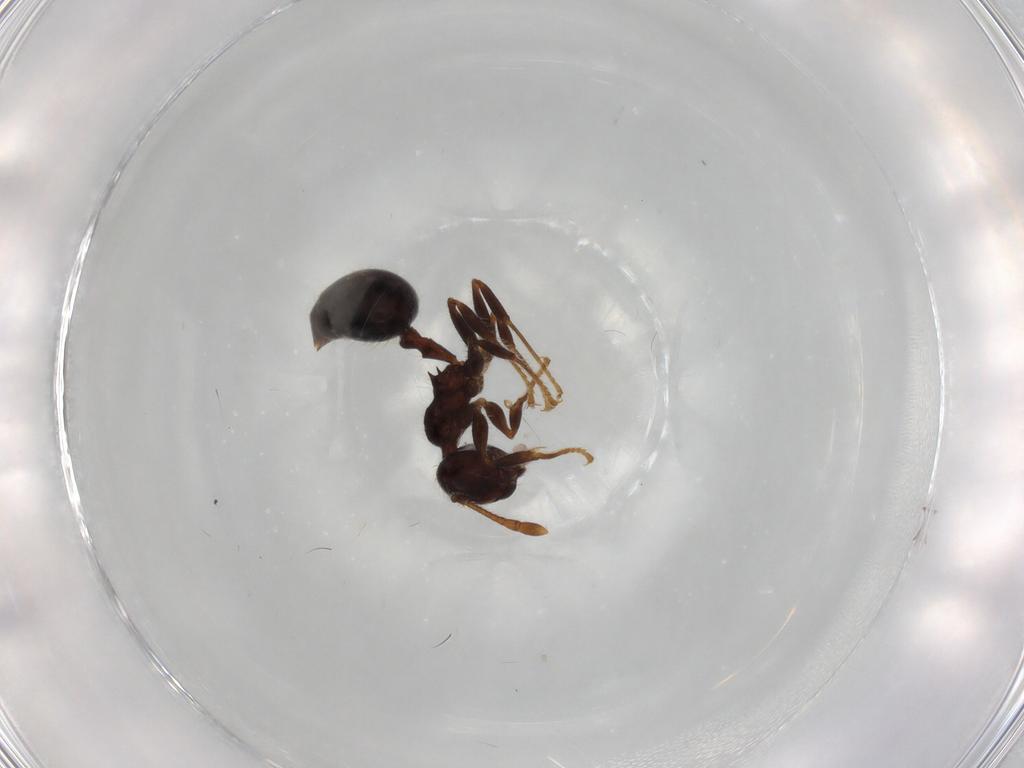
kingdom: Animalia
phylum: Arthropoda
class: Insecta
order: Hymenoptera
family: Formicidae
